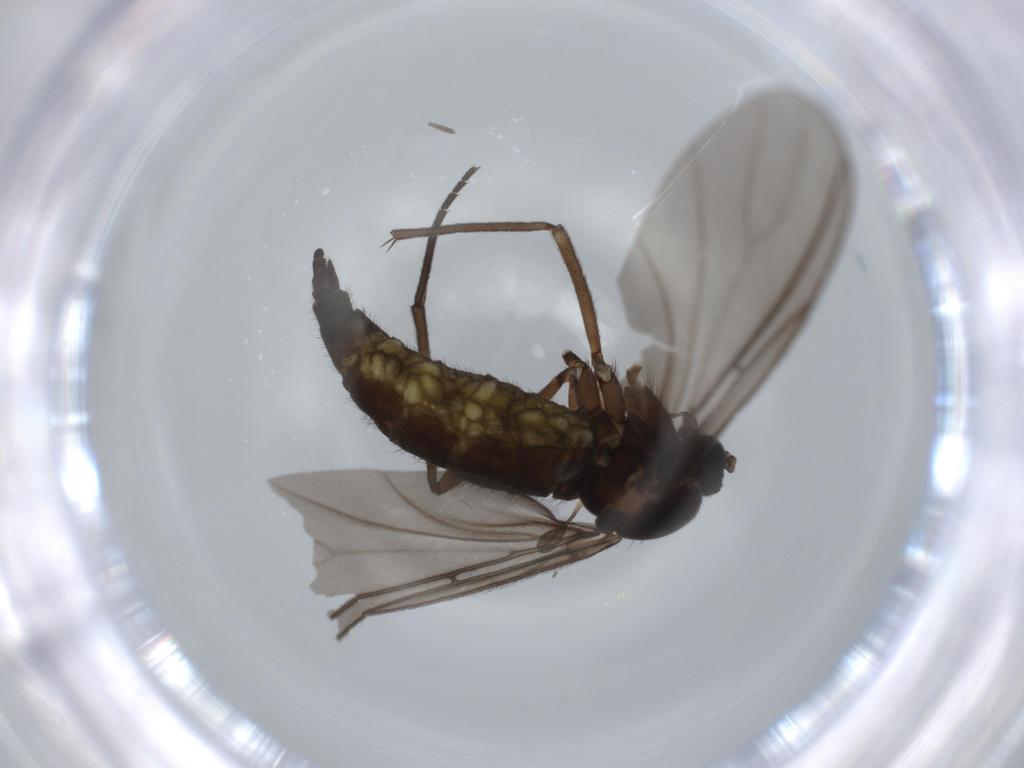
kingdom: Animalia
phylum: Arthropoda
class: Insecta
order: Diptera
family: Sciaridae
